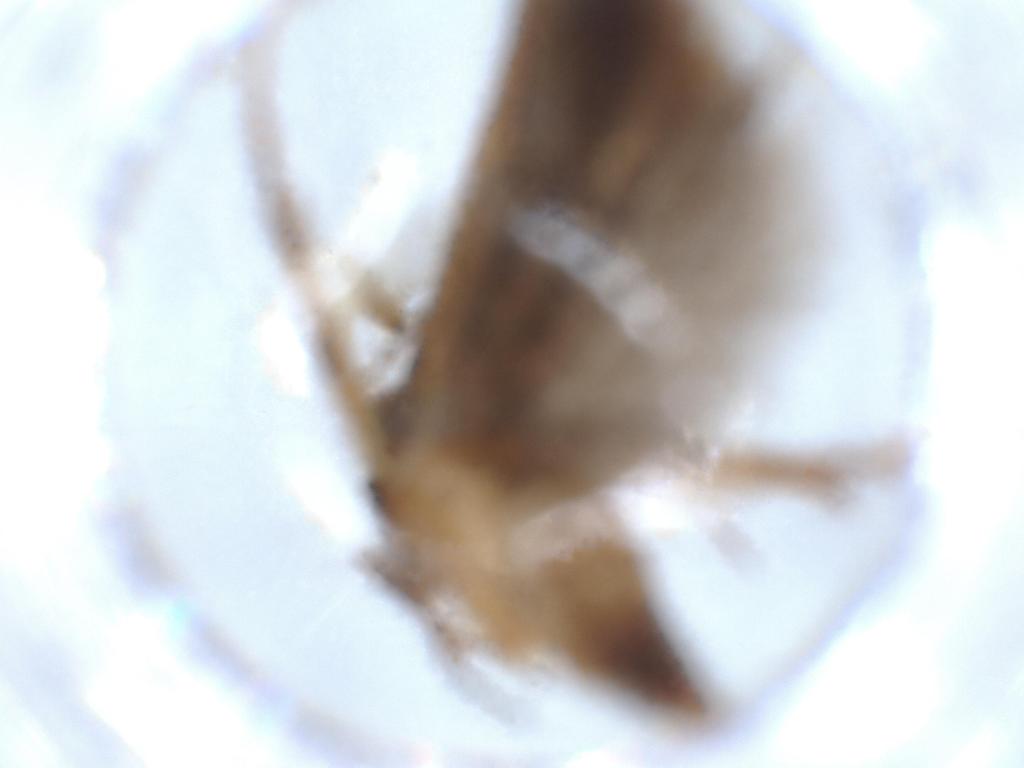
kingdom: Animalia
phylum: Arthropoda
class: Insecta
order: Lepidoptera
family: Tineidae
